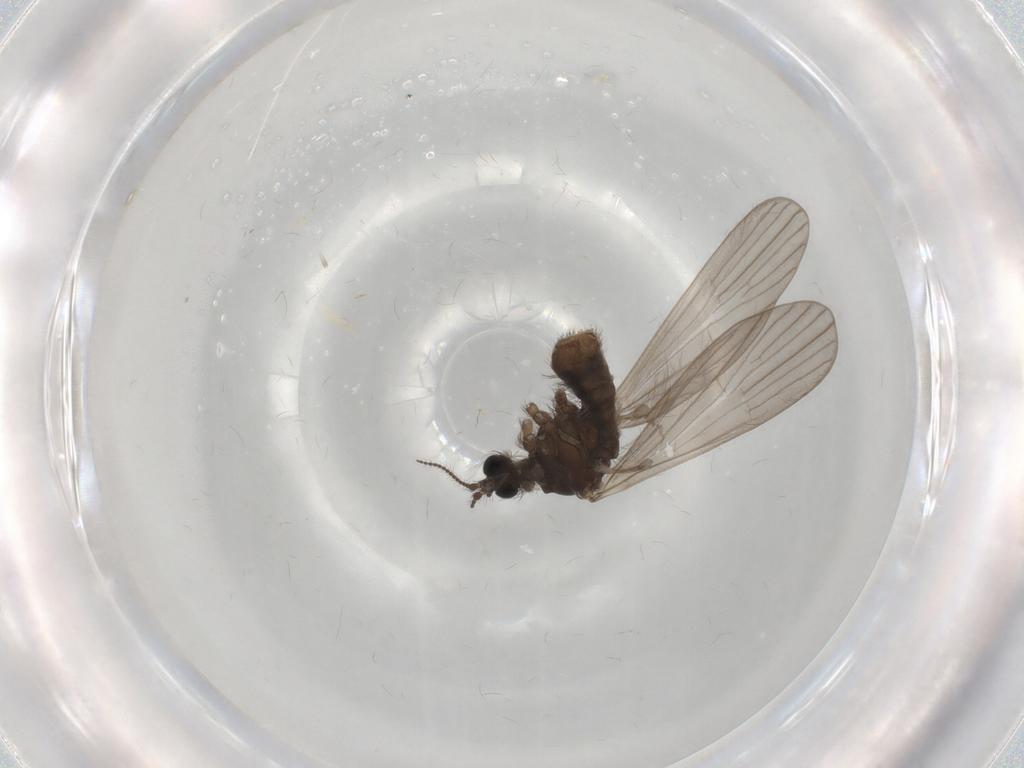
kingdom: Animalia
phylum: Arthropoda
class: Insecta
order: Diptera
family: Limoniidae
